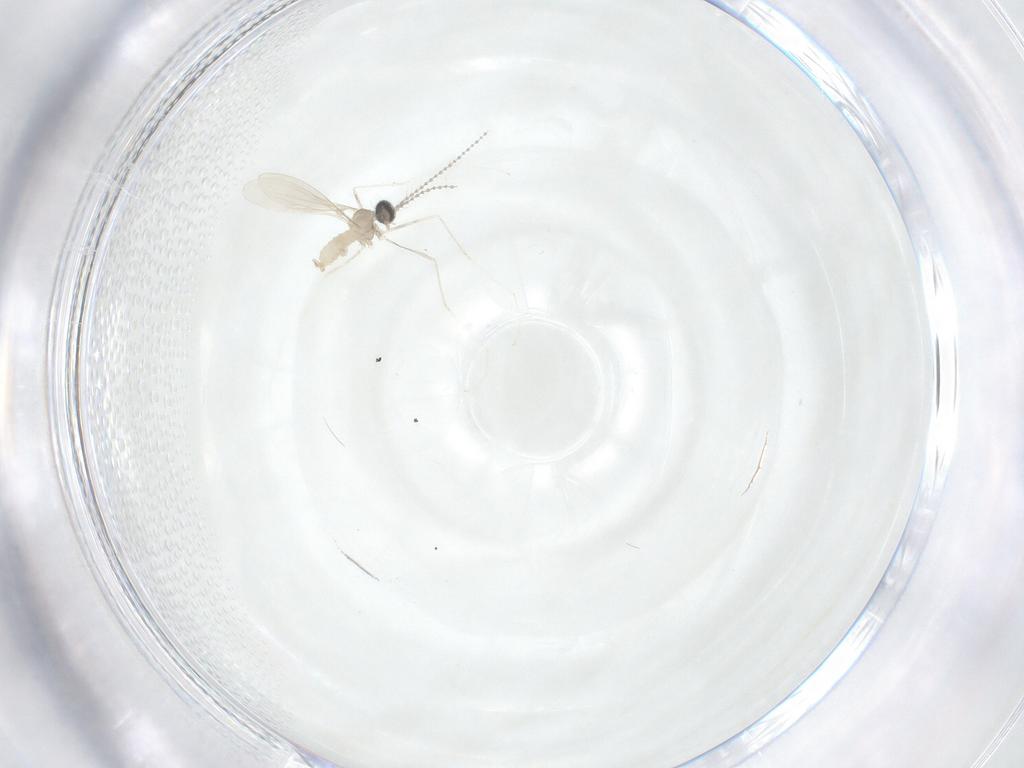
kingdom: Animalia
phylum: Arthropoda
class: Insecta
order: Diptera
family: Cecidomyiidae
